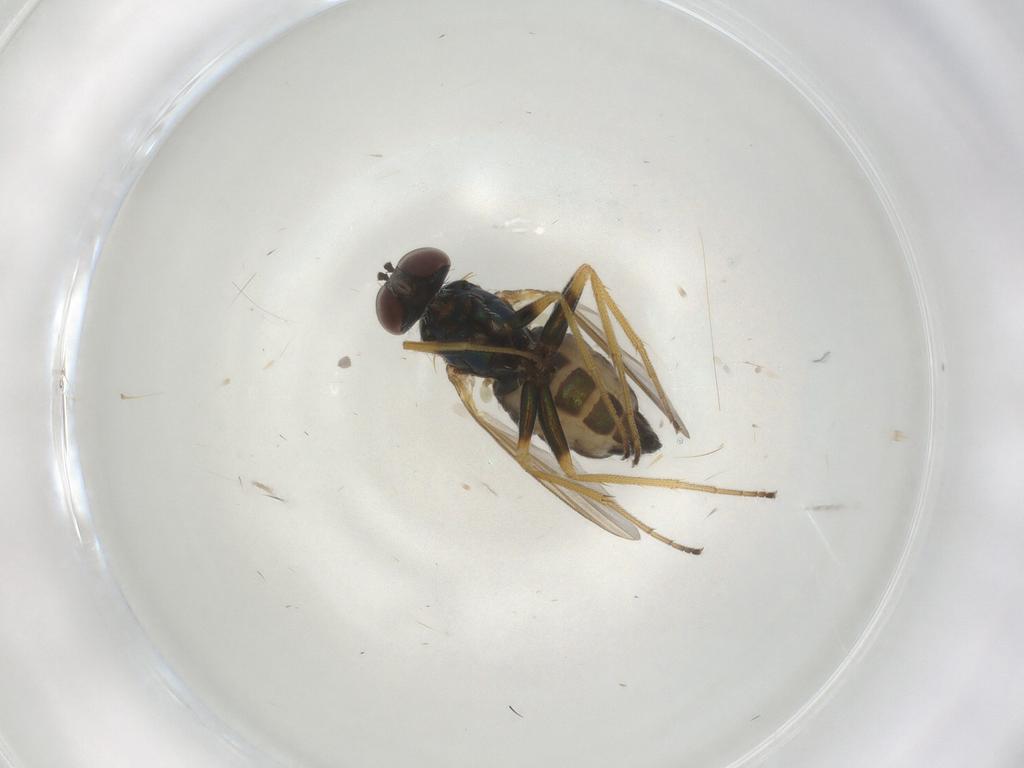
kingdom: Animalia
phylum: Arthropoda
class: Insecta
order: Diptera
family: Dolichopodidae
